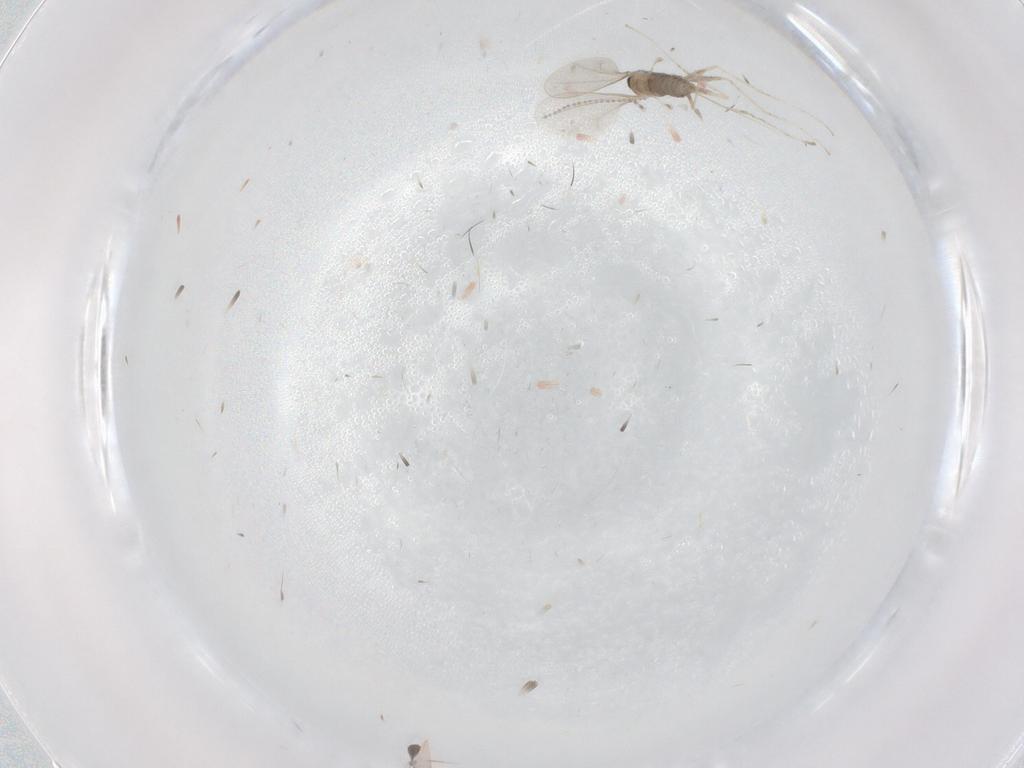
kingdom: Animalia
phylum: Arthropoda
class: Insecta
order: Diptera
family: Cecidomyiidae
